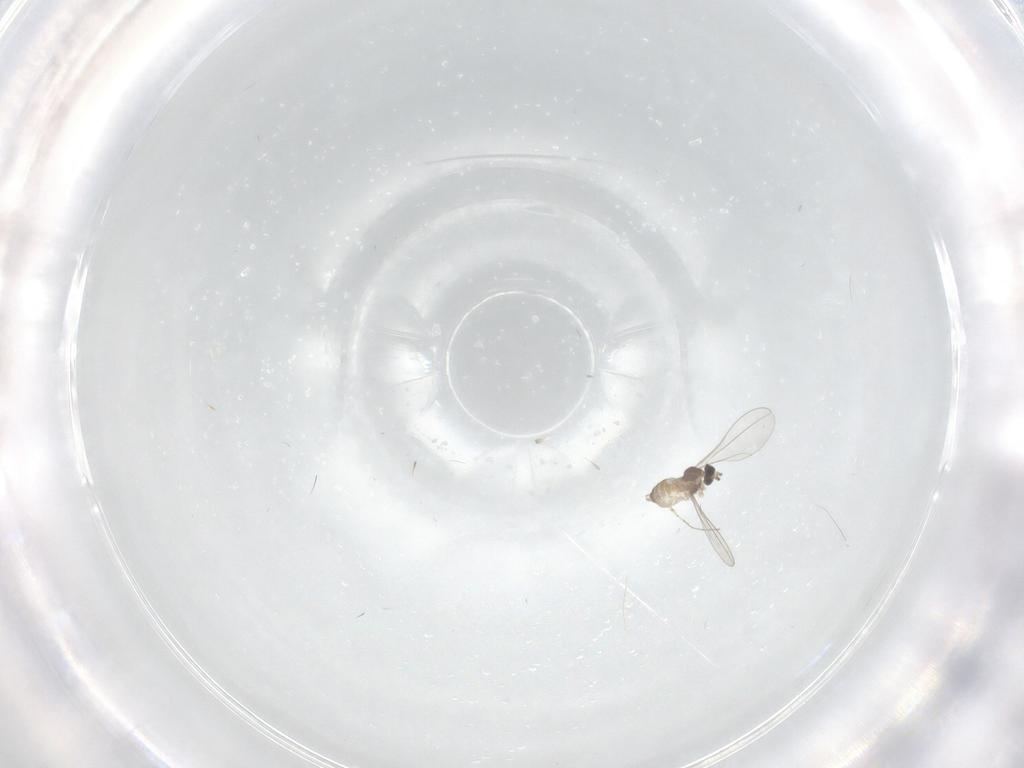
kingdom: Animalia
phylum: Arthropoda
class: Insecta
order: Diptera
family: Cecidomyiidae
